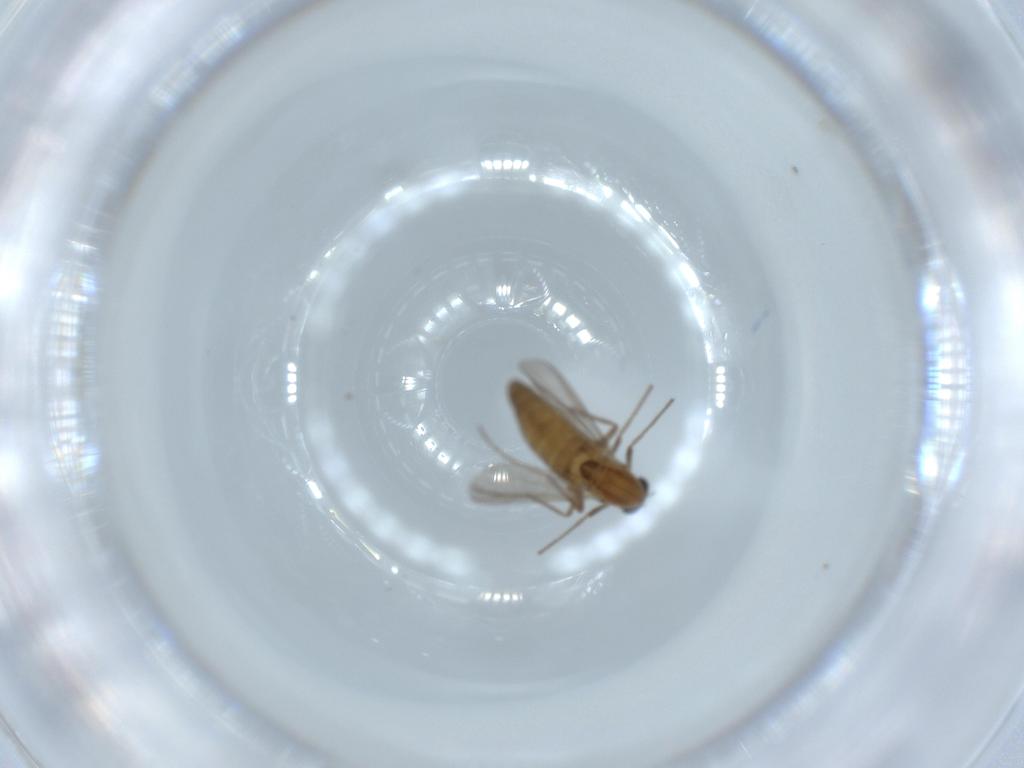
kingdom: Animalia
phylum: Arthropoda
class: Insecta
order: Diptera
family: Chironomidae
